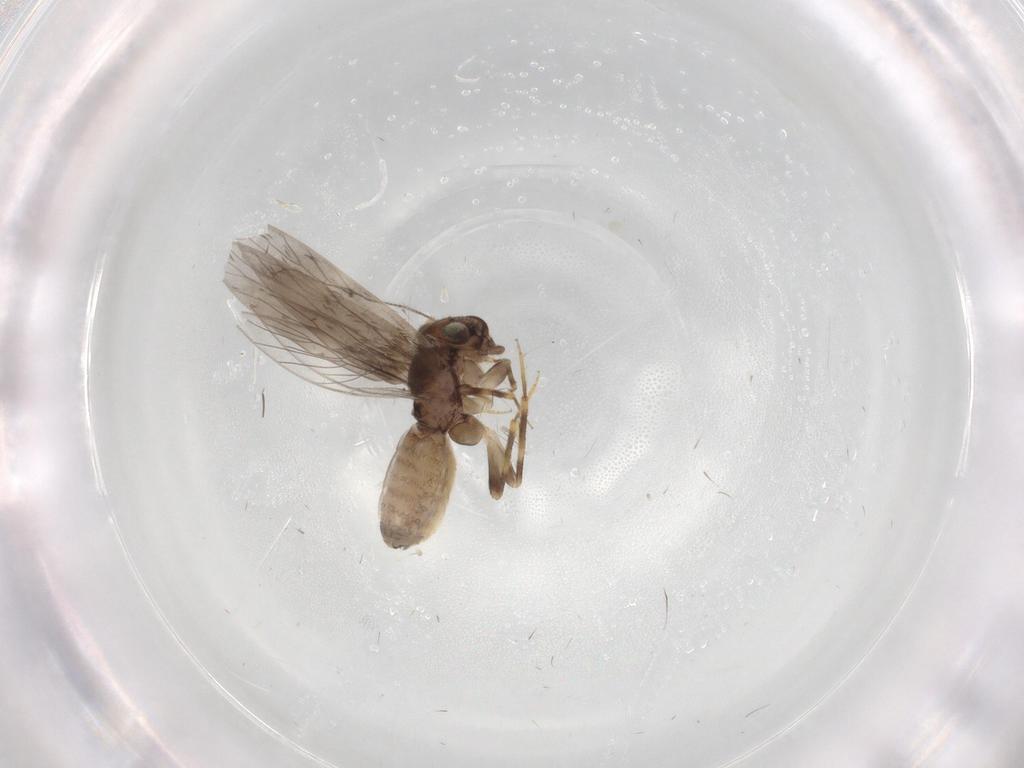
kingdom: Animalia
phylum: Arthropoda
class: Insecta
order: Psocodea
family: Lepidopsocidae
